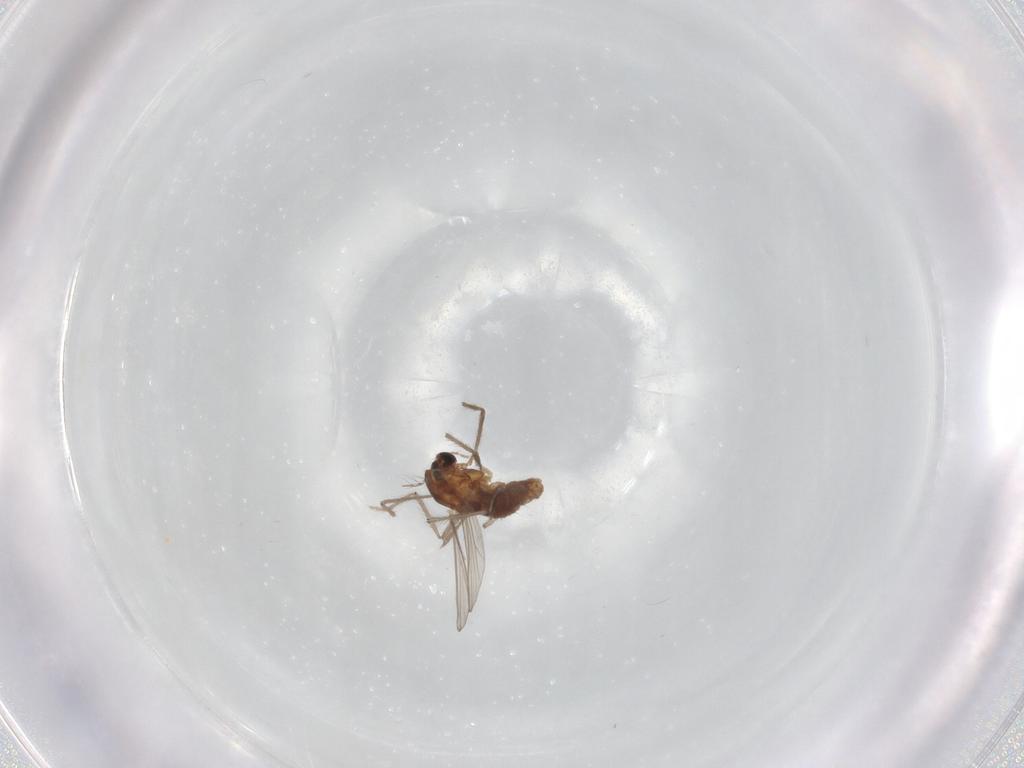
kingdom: Animalia
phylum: Arthropoda
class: Insecta
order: Diptera
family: Chironomidae
